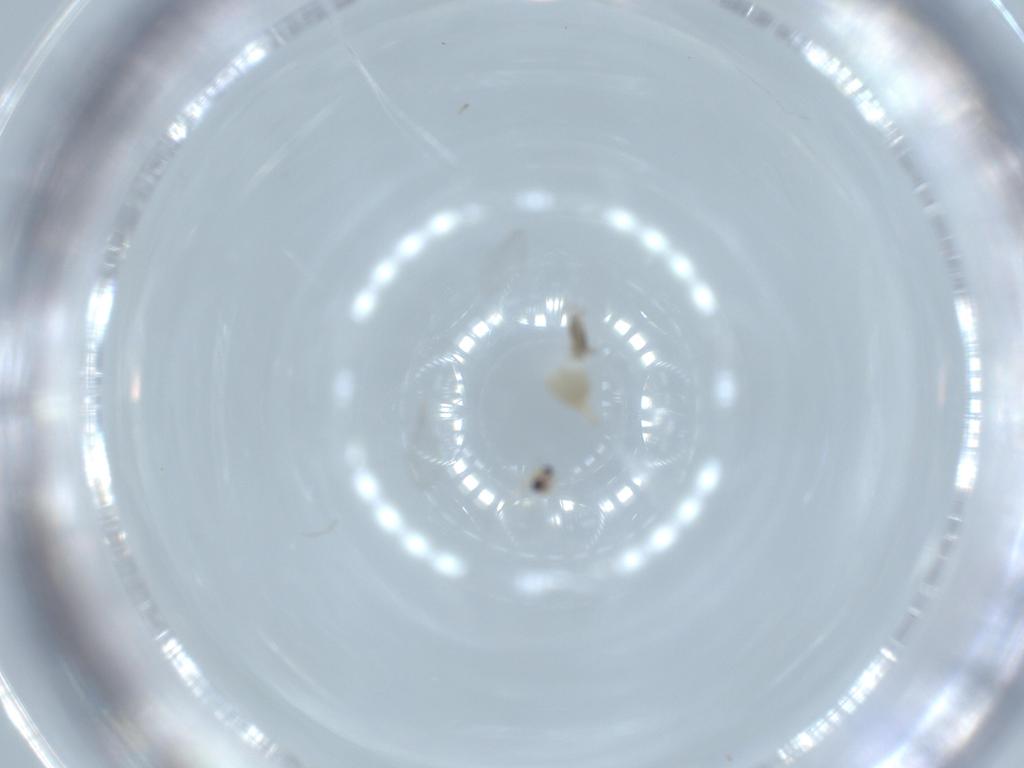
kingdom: Animalia
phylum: Arthropoda
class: Insecta
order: Diptera
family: Cecidomyiidae
